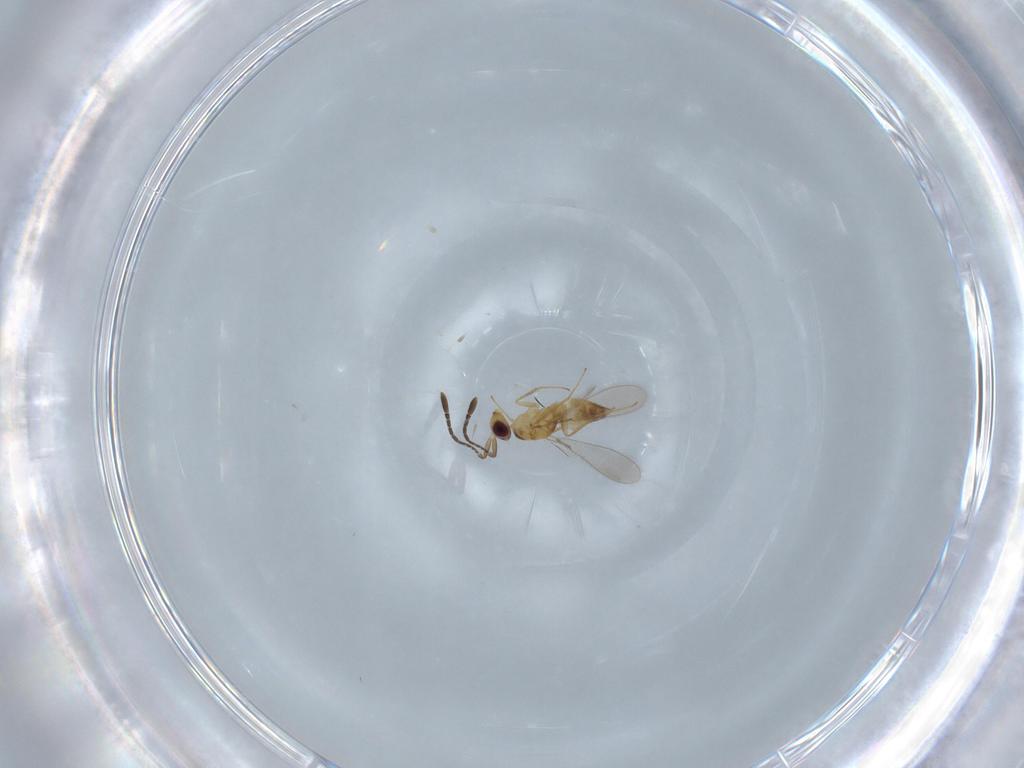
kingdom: Animalia
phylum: Arthropoda
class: Insecta
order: Hymenoptera
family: Mymaridae
